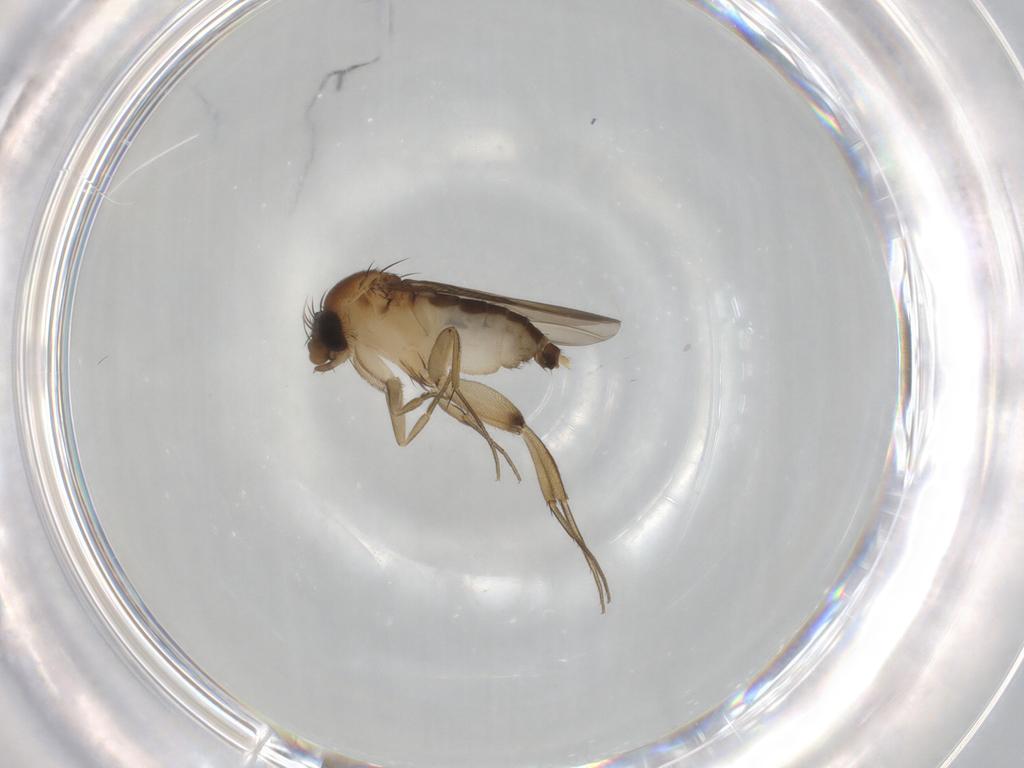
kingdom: Animalia
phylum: Arthropoda
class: Insecta
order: Diptera
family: Phoridae
